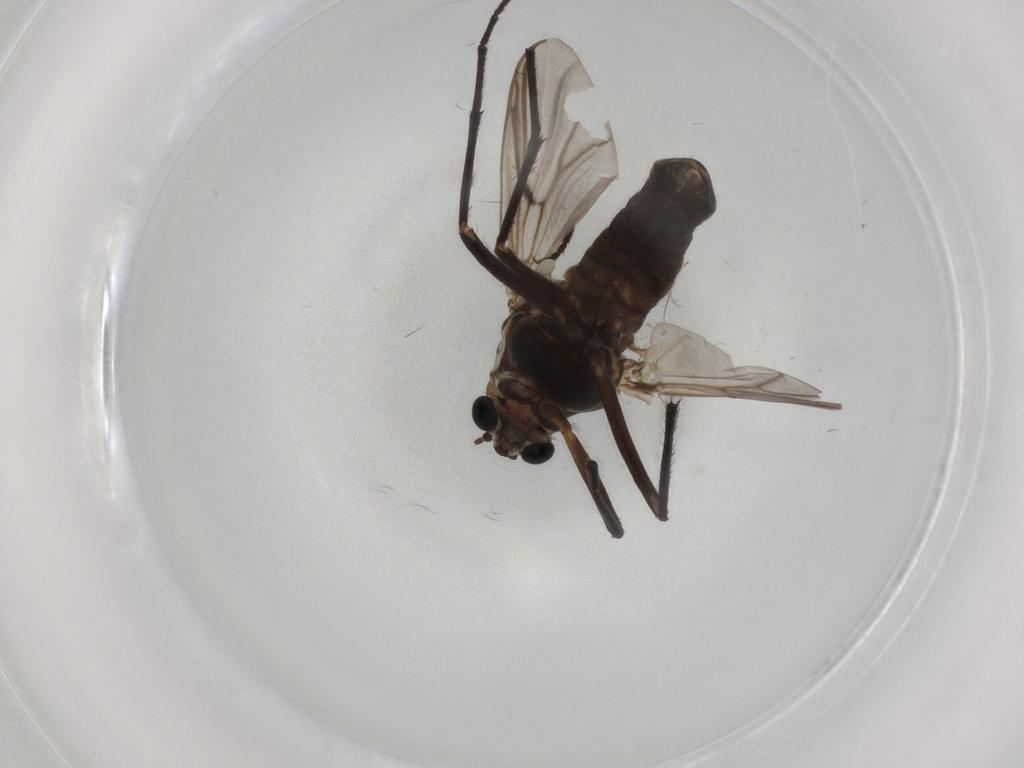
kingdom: Animalia
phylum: Arthropoda
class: Insecta
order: Diptera
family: Chironomidae
